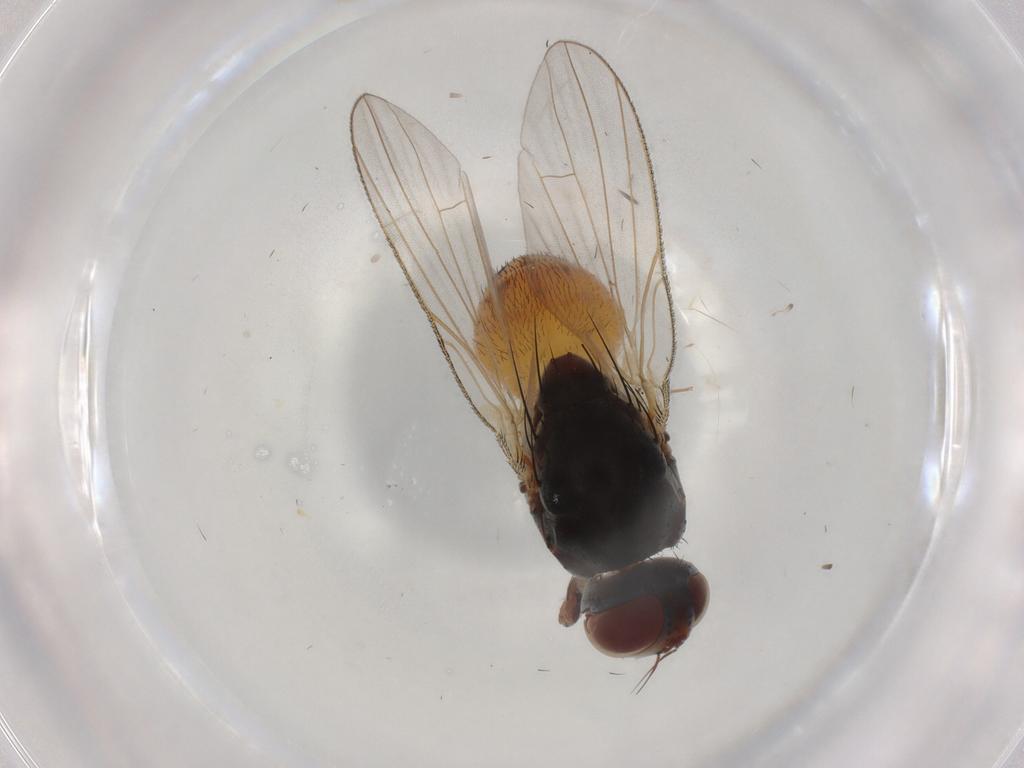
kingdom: Animalia
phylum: Arthropoda
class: Insecta
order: Diptera
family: Muscidae
